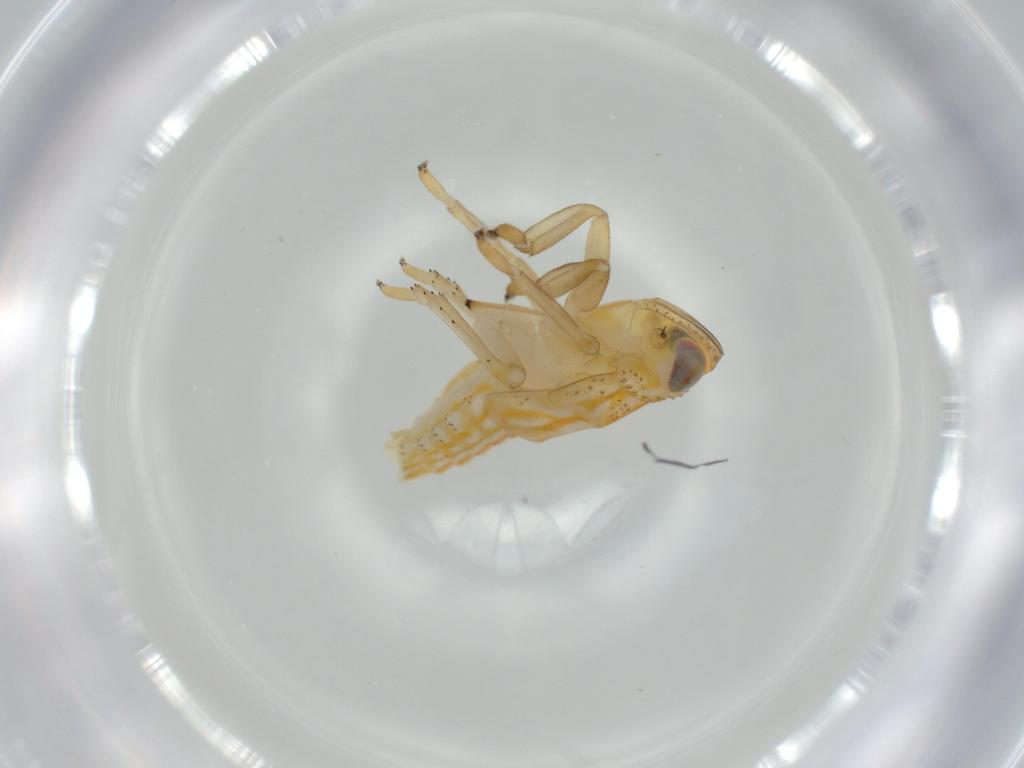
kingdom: Animalia
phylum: Arthropoda
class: Insecta
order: Hemiptera
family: Issidae
